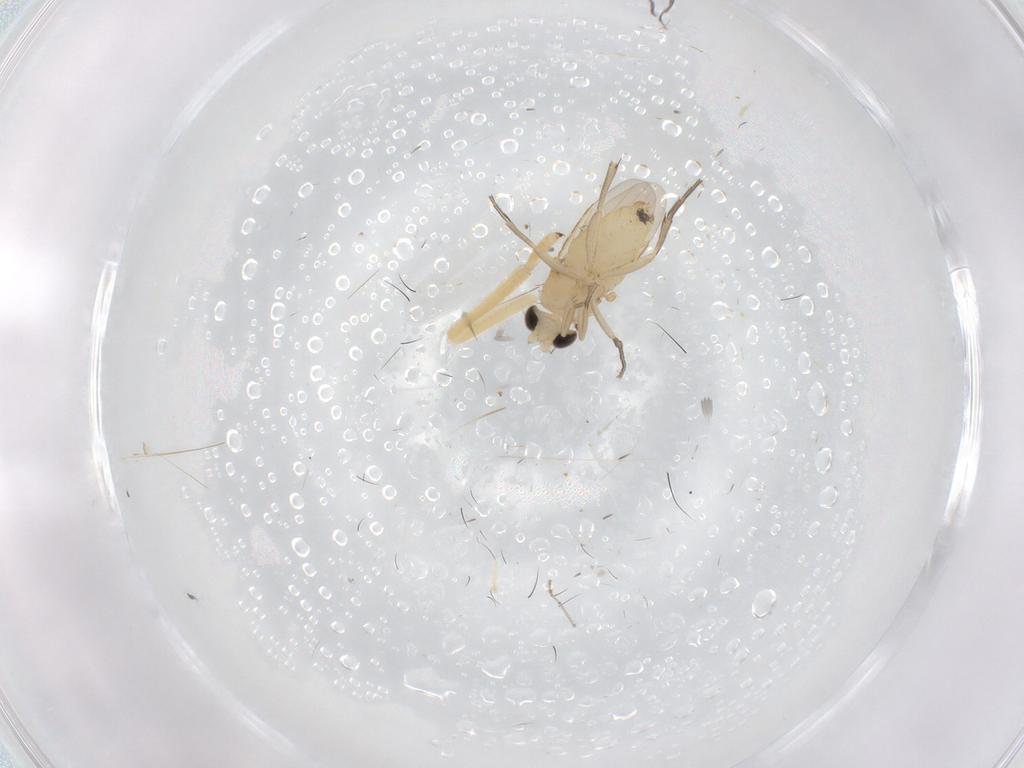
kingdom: Animalia
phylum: Arthropoda
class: Insecta
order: Diptera
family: Phoridae
